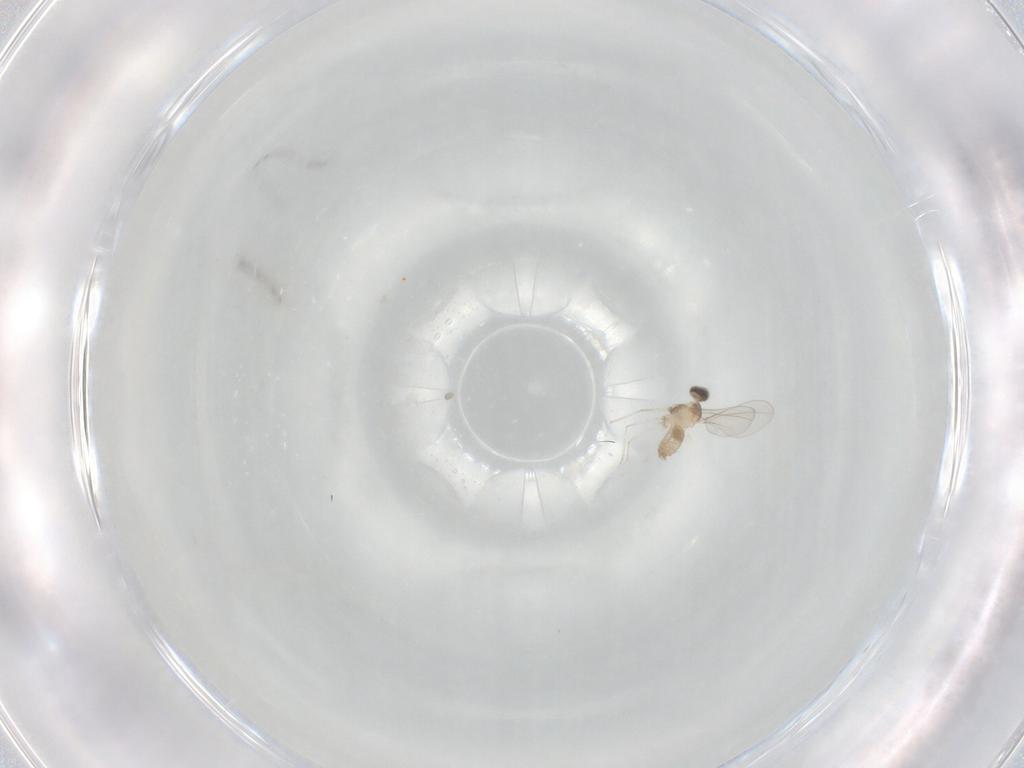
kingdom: Animalia
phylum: Arthropoda
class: Insecta
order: Diptera
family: Cecidomyiidae
